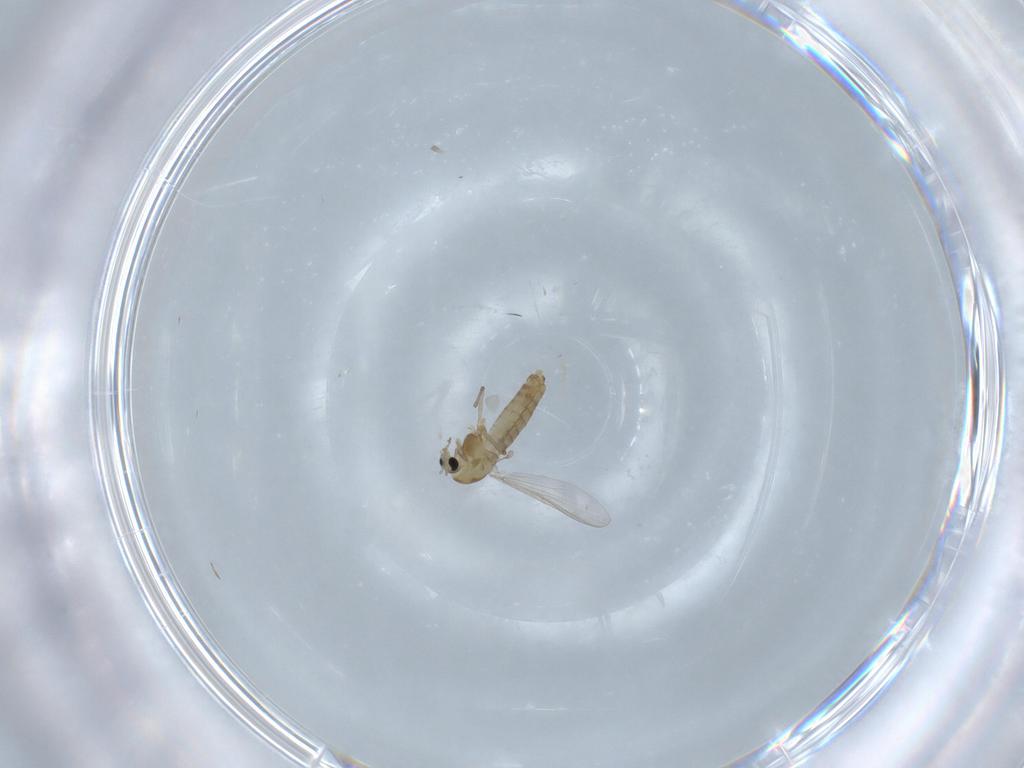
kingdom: Animalia
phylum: Arthropoda
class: Insecta
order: Diptera
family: Chironomidae
